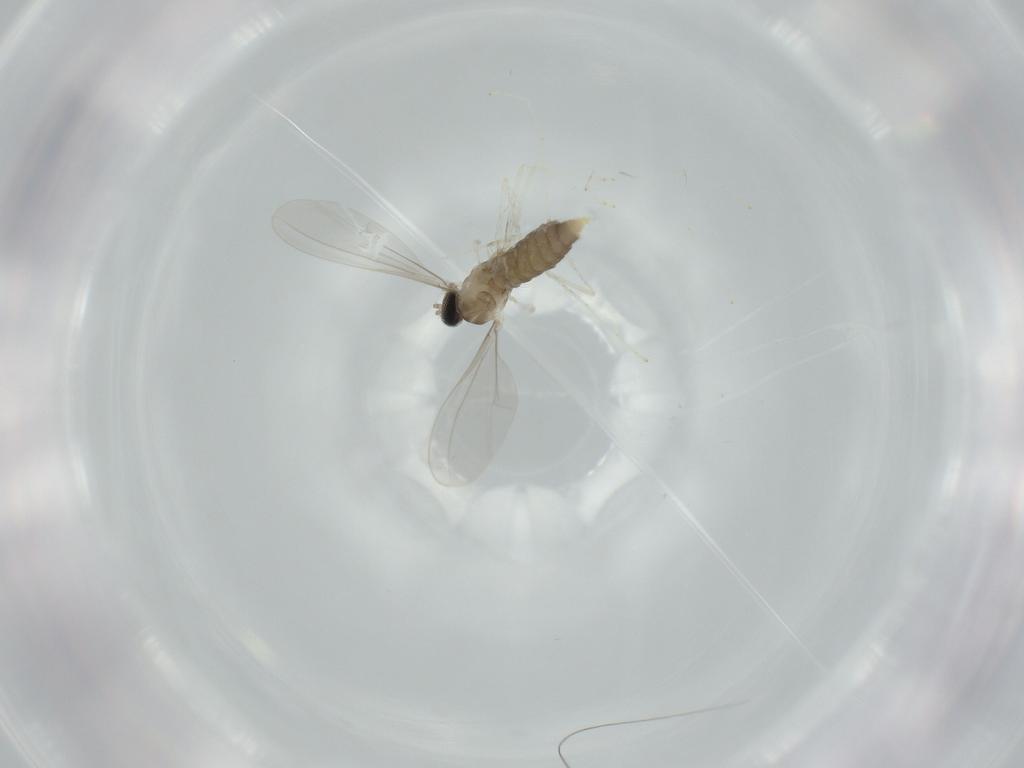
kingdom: Animalia
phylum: Arthropoda
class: Insecta
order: Diptera
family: Cecidomyiidae
